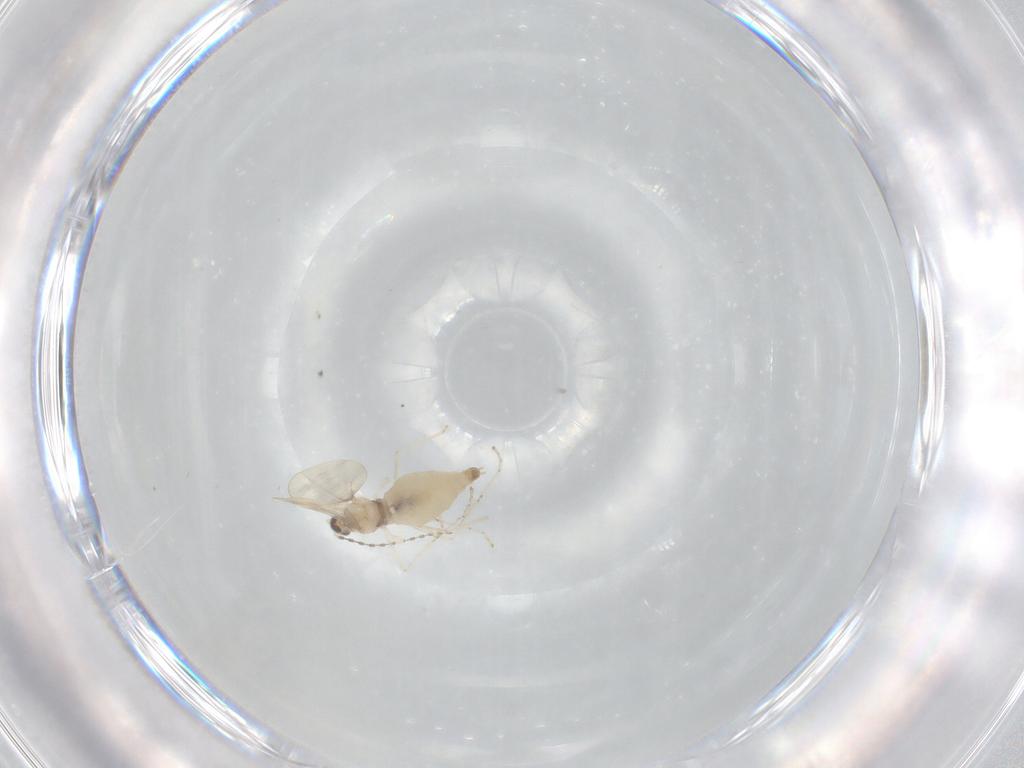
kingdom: Animalia
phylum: Arthropoda
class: Insecta
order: Diptera
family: Cecidomyiidae
